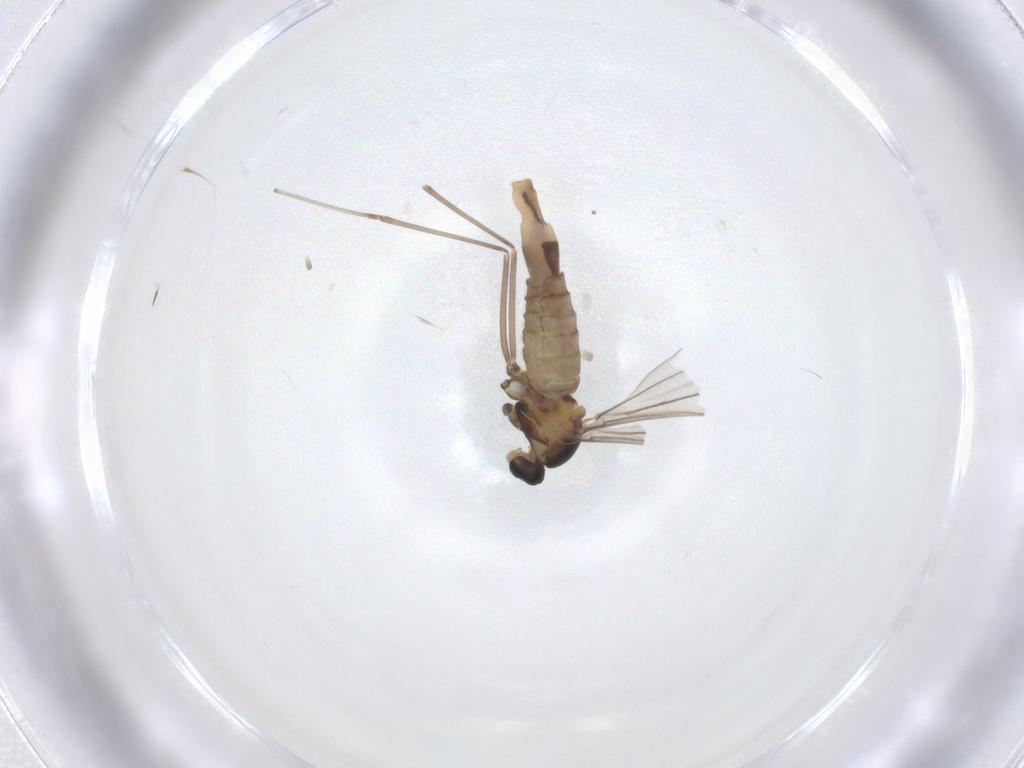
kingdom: Animalia
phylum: Arthropoda
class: Insecta
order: Diptera
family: Cecidomyiidae
